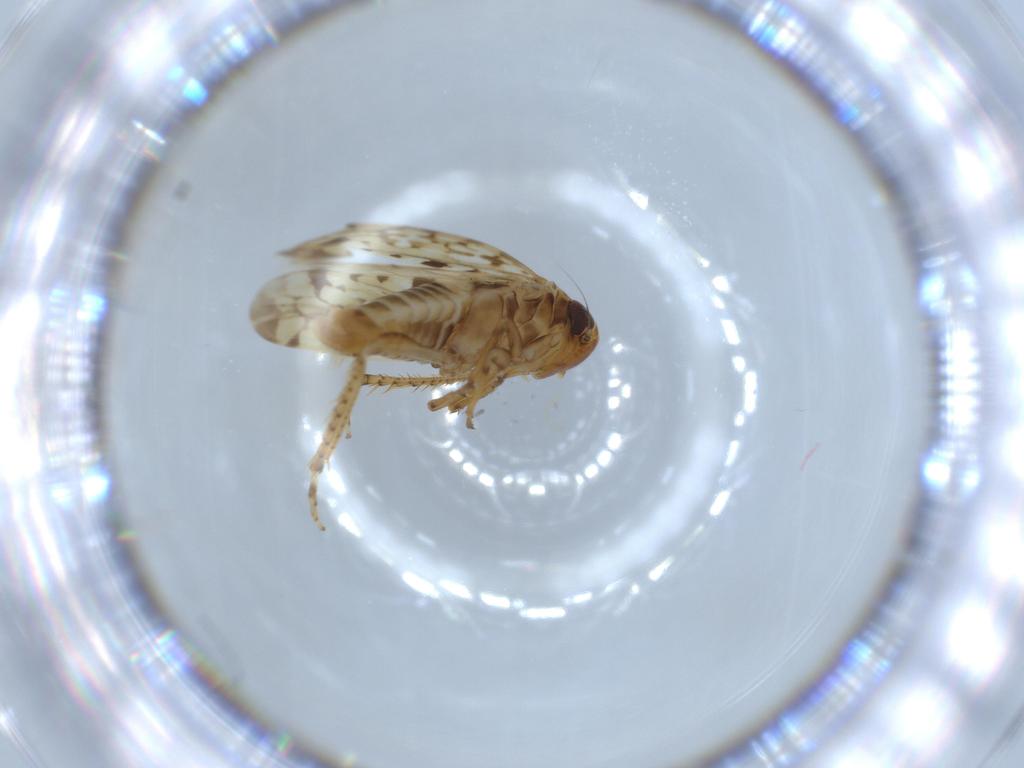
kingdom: Animalia
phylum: Arthropoda
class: Insecta
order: Hemiptera
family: Cicadellidae
